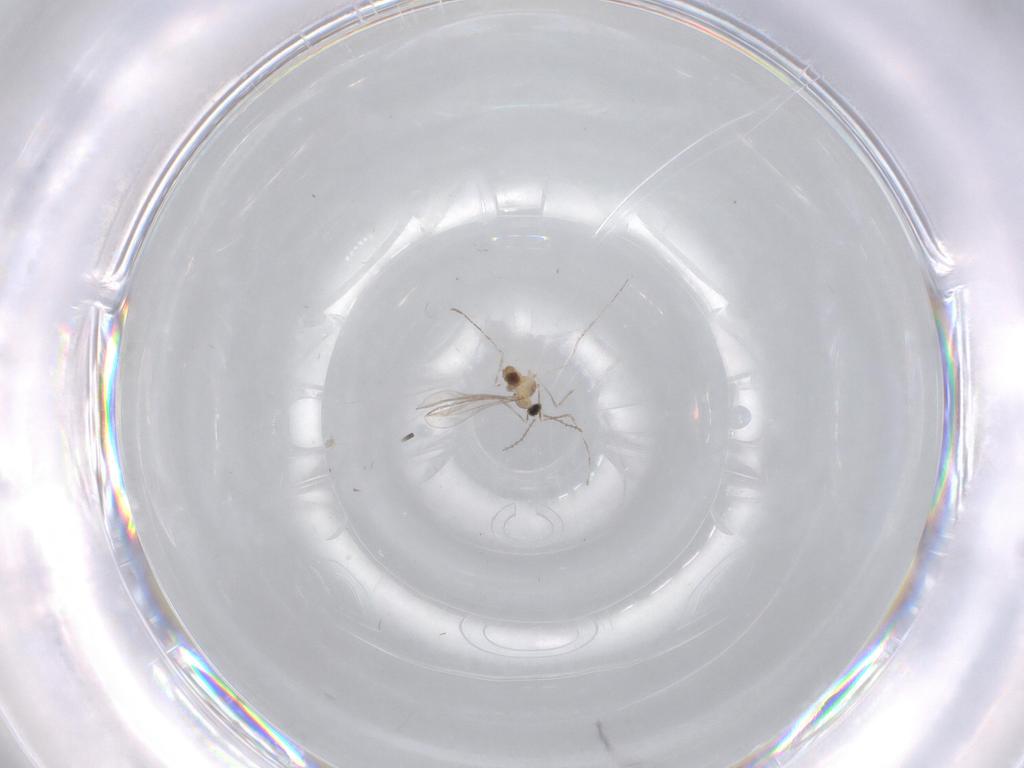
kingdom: Animalia
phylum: Arthropoda
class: Insecta
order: Diptera
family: Cecidomyiidae
